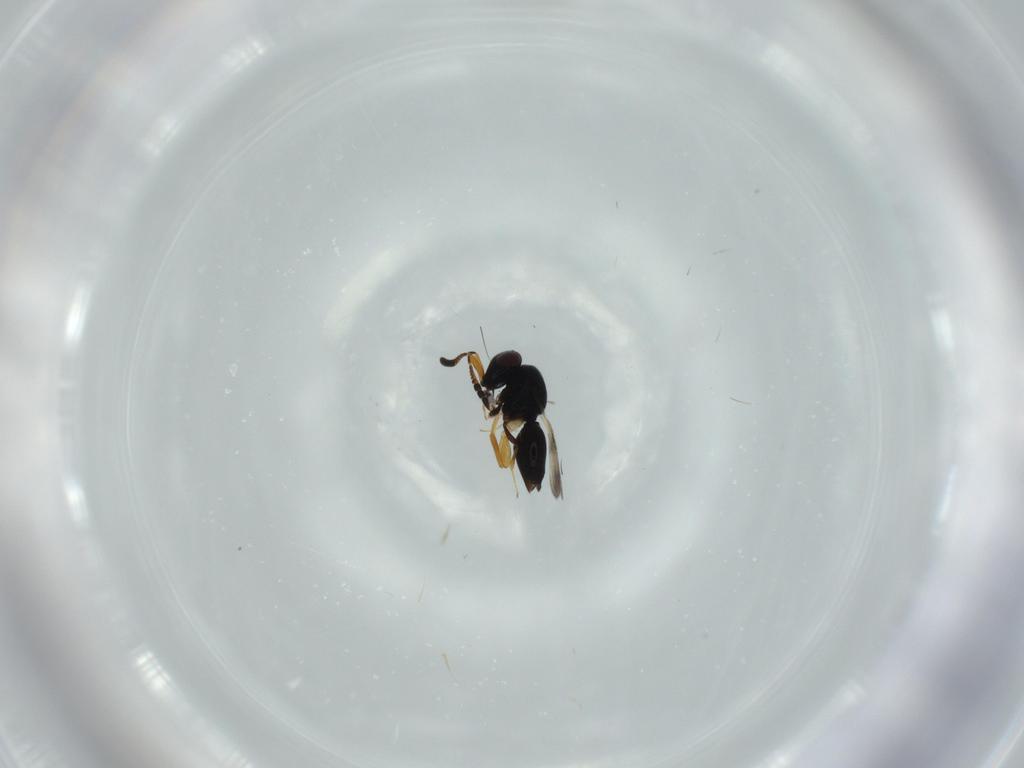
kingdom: Animalia
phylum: Arthropoda
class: Insecta
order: Hymenoptera
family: Ceraphronidae
